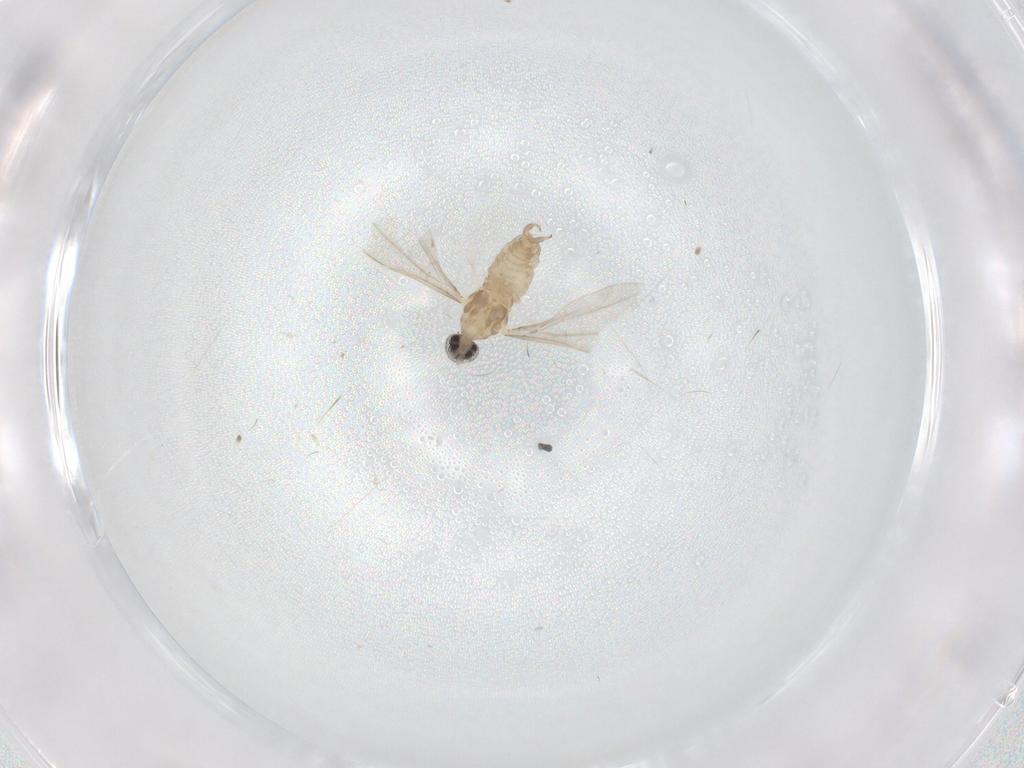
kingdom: Animalia
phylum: Arthropoda
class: Insecta
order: Diptera
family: Cecidomyiidae
